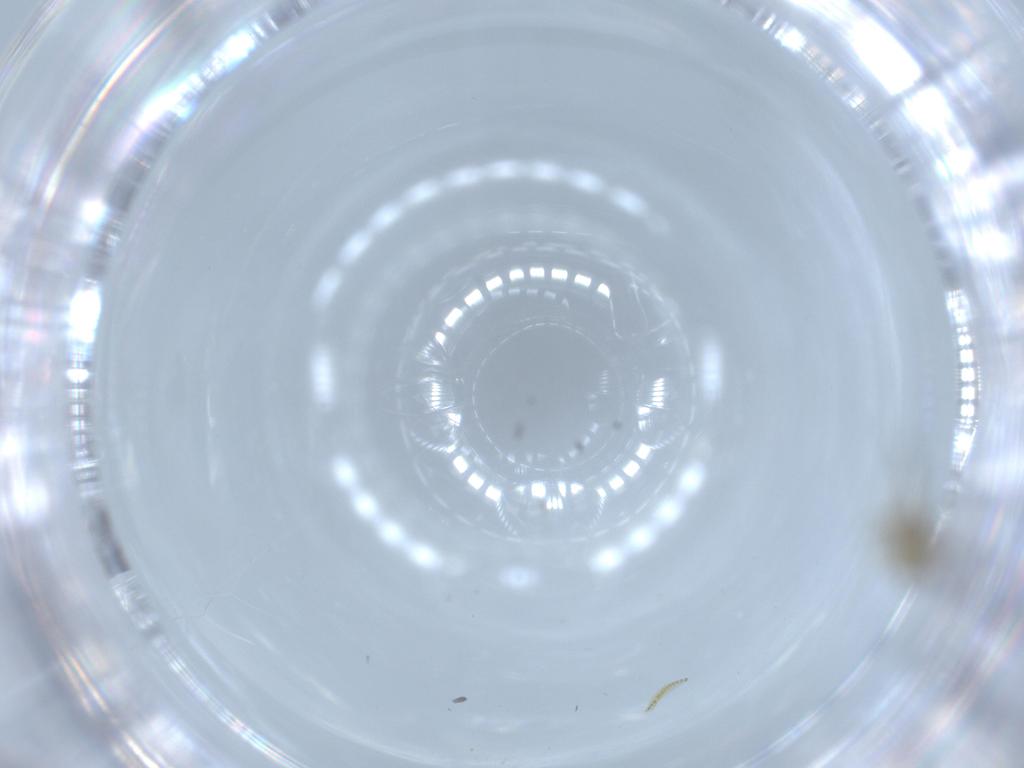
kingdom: Animalia
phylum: Arthropoda
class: Insecta
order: Diptera
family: Ceratopogonidae
